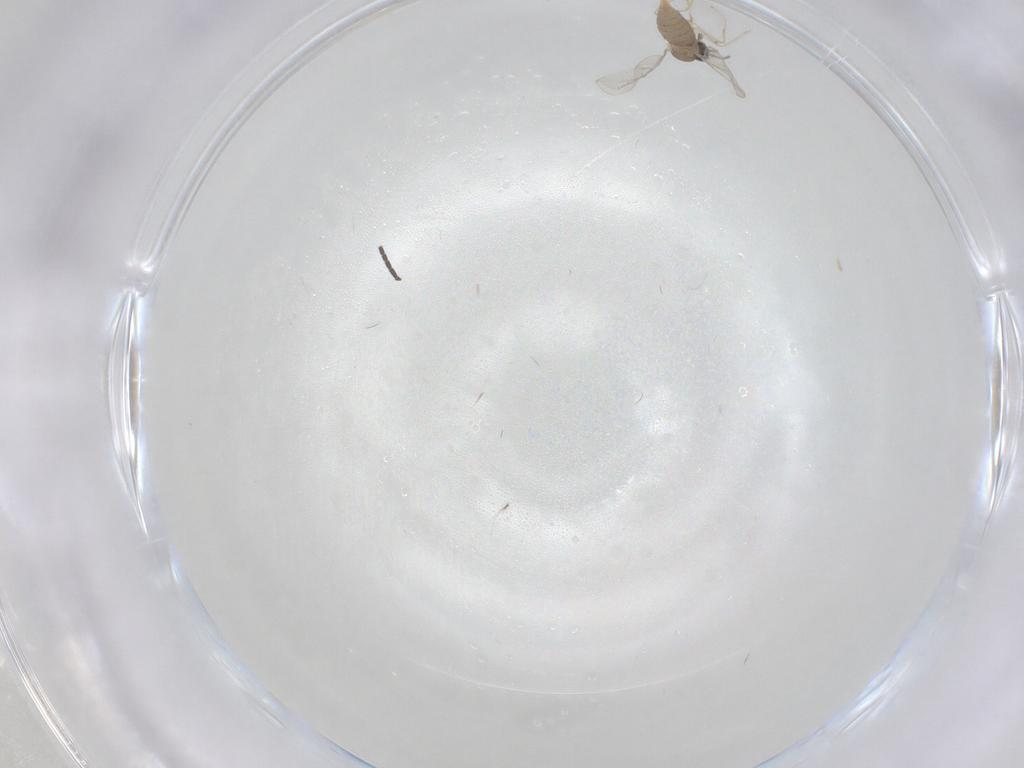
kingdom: Animalia
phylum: Arthropoda
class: Insecta
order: Diptera
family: Cecidomyiidae
